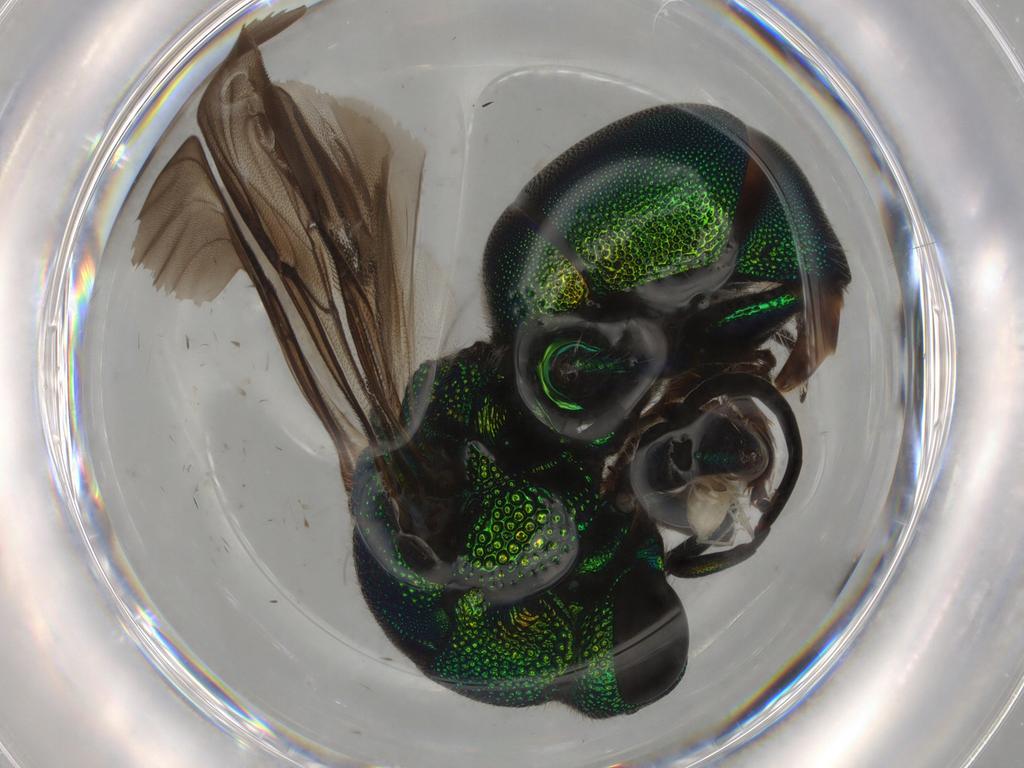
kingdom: Animalia
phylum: Arthropoda
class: Insecta
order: Hymenoptera
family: Chrysididae
